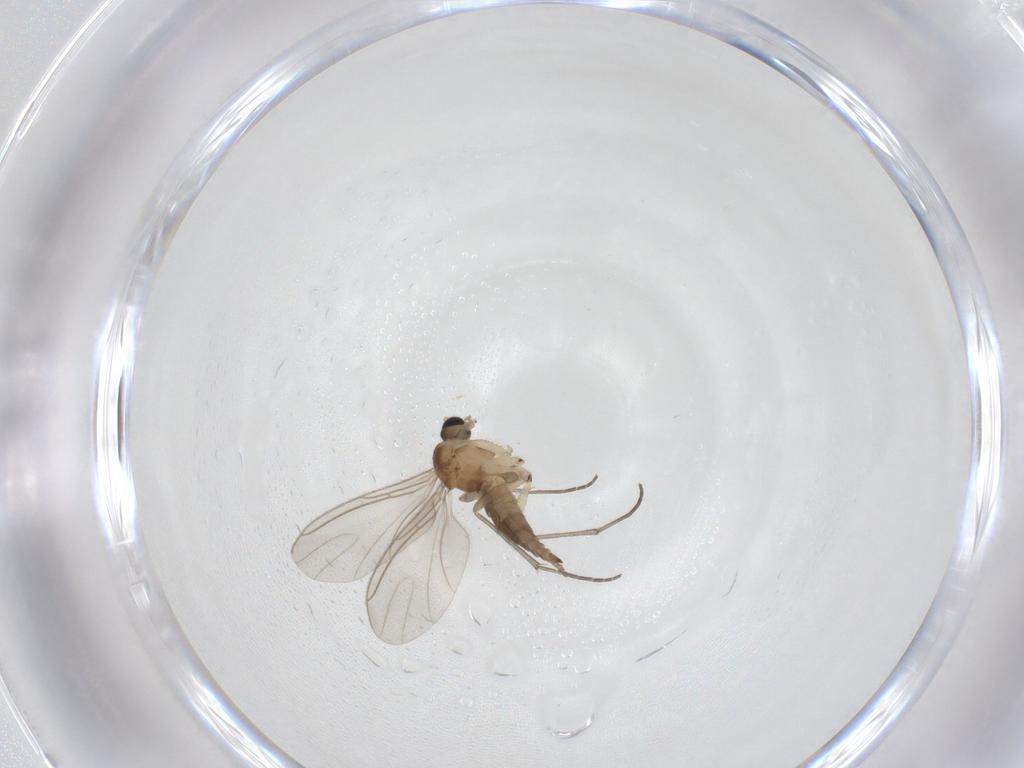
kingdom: Animalia
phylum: Arthropoda
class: Insecta
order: Diptera
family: Sciaridae
